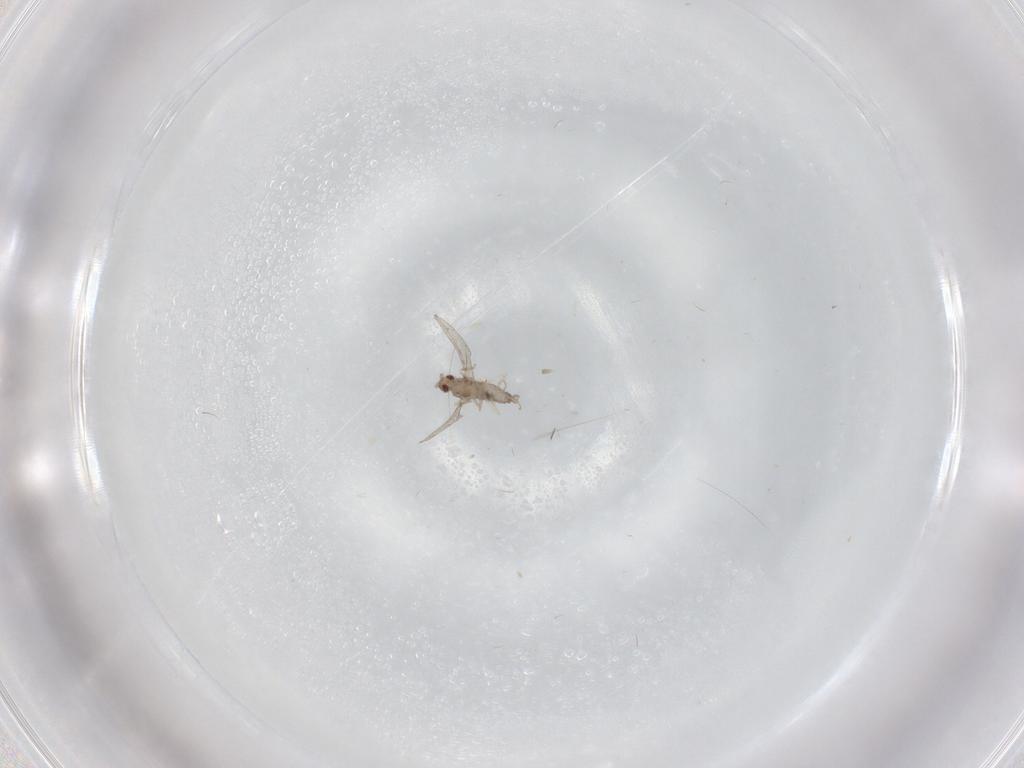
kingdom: Animalia
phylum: Arthropoda
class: Insecta
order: Diptera
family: Cecidomyiidae
